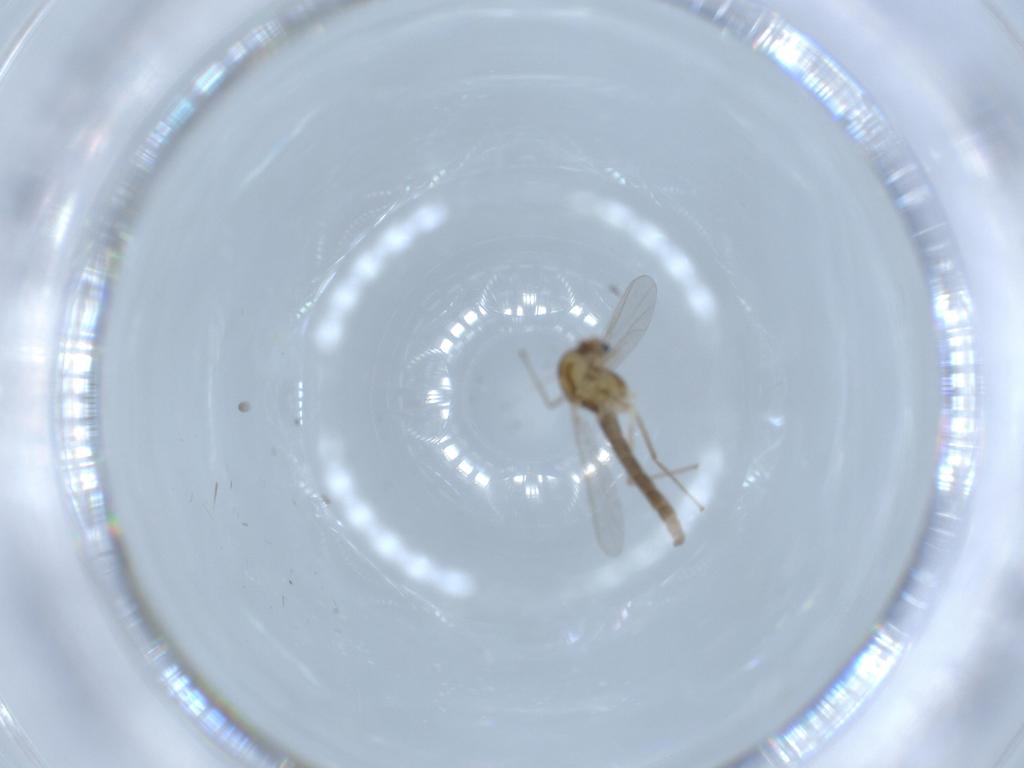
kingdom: Animalia
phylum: Arthropoda
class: Insecta
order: Diptera
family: Chironomidae
